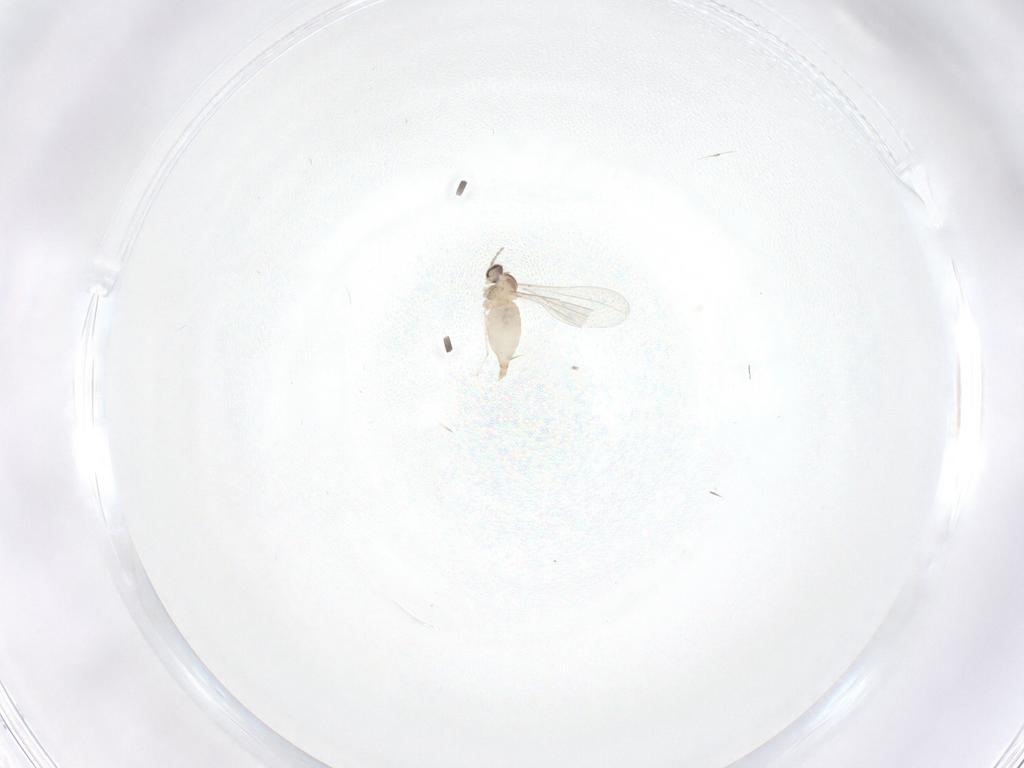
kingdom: Animalia
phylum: Arthropoda
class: Insecta
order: Diptera
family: Cecidomyiidae
